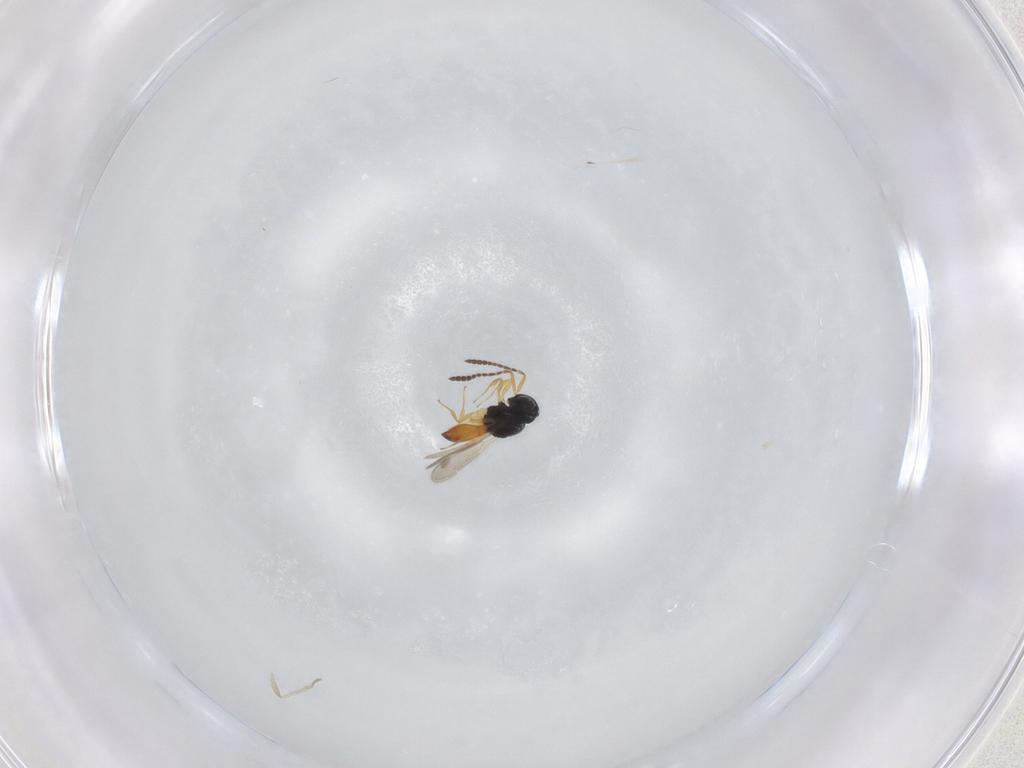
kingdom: Animalia
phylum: Arthropoda
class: Insecta
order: Hymenoptera
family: Scelionidae
